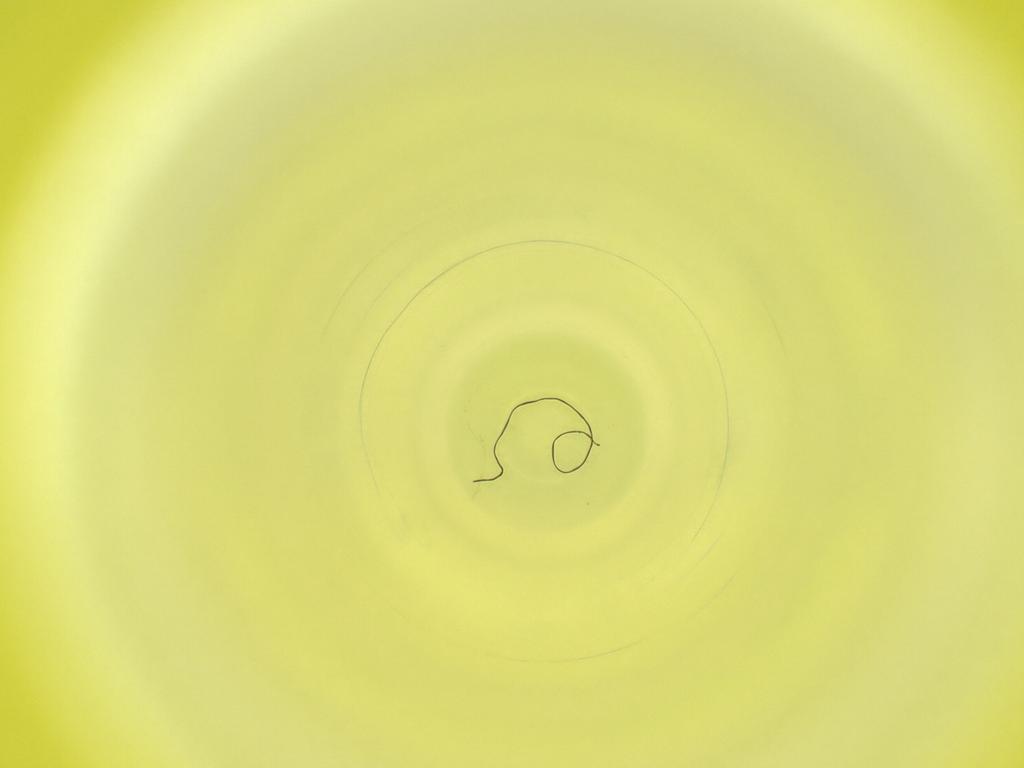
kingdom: Animalia
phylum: Arthropoda
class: Insecta
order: Diptera
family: Cecidomyiidae
